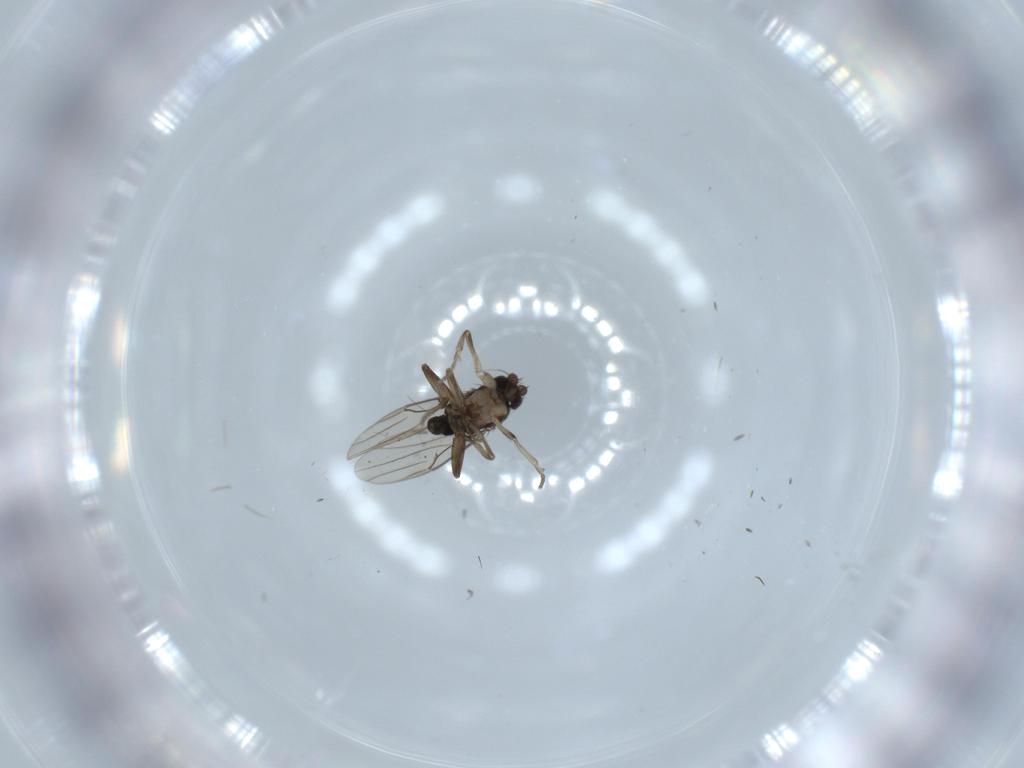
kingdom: Animalia
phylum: Arthropoda
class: Insecta
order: Diptera
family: Phoridae
